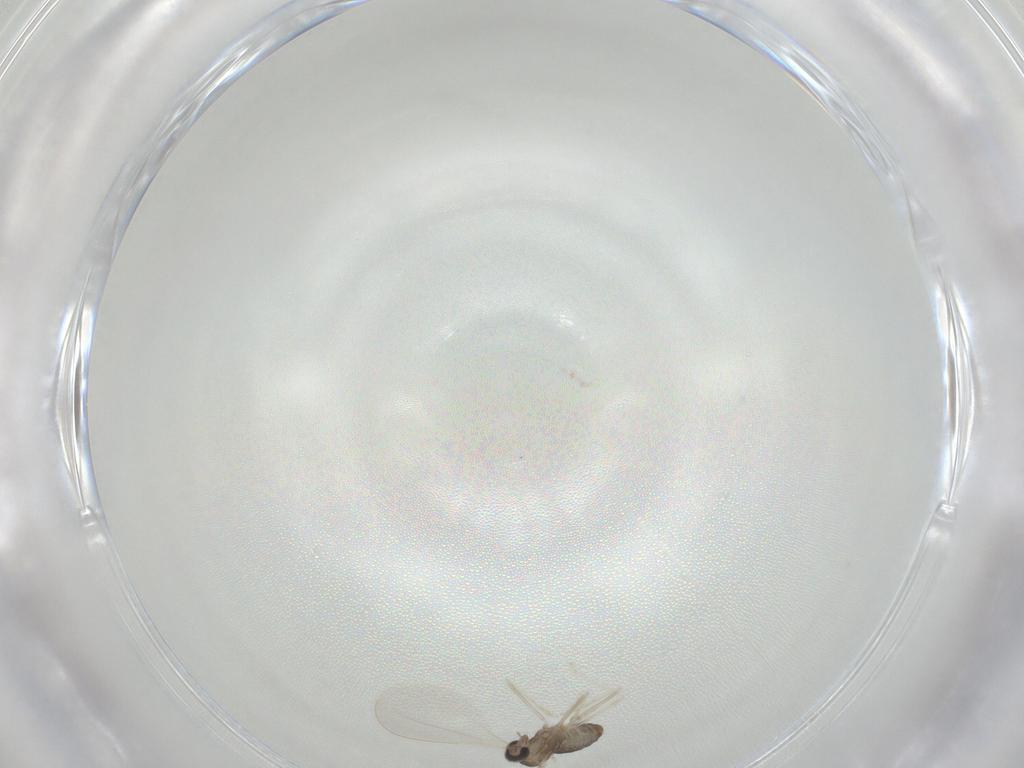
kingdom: Animalia
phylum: Arthropoda
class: Insecta
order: Diptera
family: Cecidomyiidae
